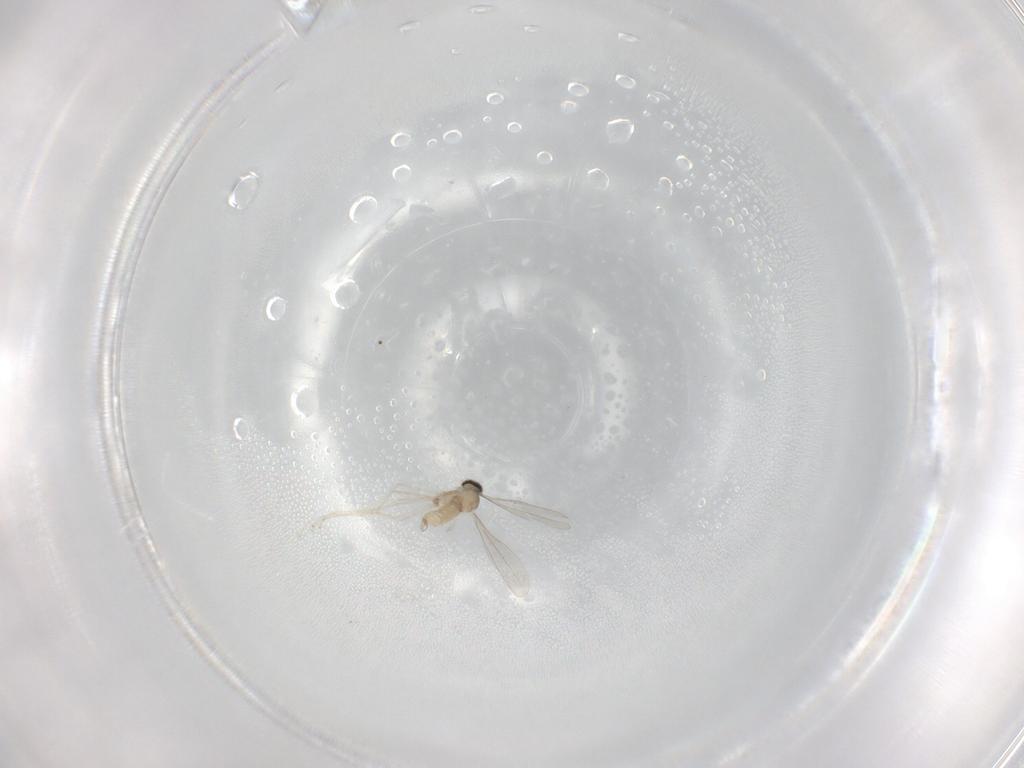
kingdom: Animalia
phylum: Arthropoda
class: Insecta
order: Diptera
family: Cecidomyiidae
